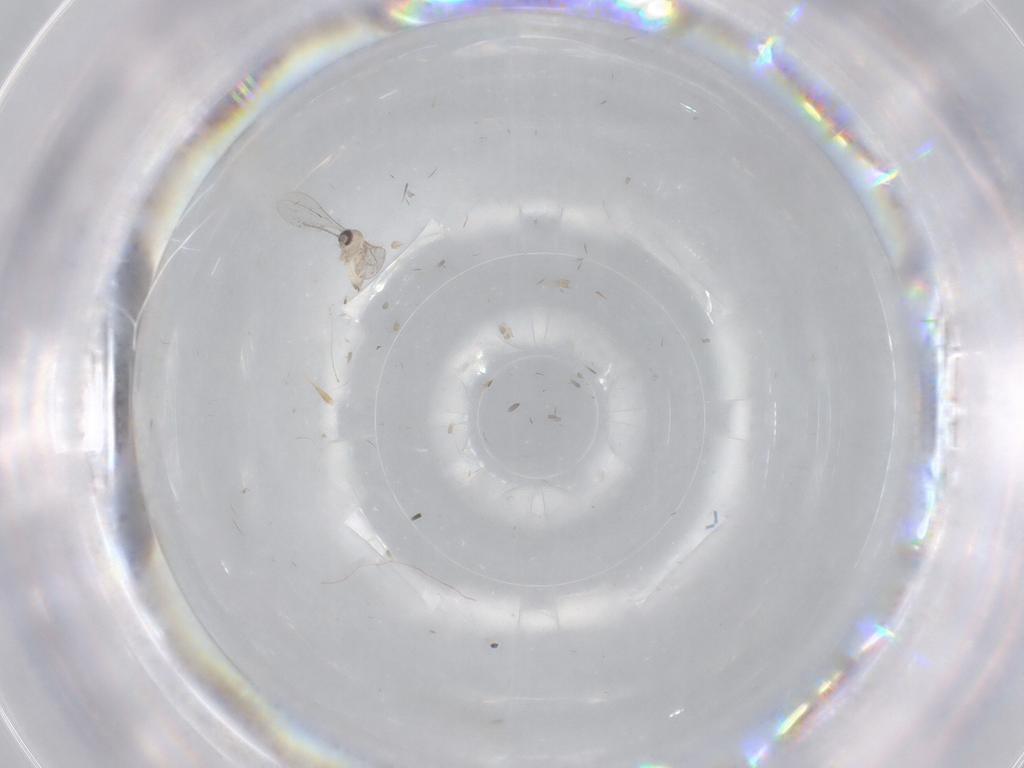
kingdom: Animalia
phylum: Arthropoda
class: Insecta
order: Diptera
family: Cecidomyiidae
